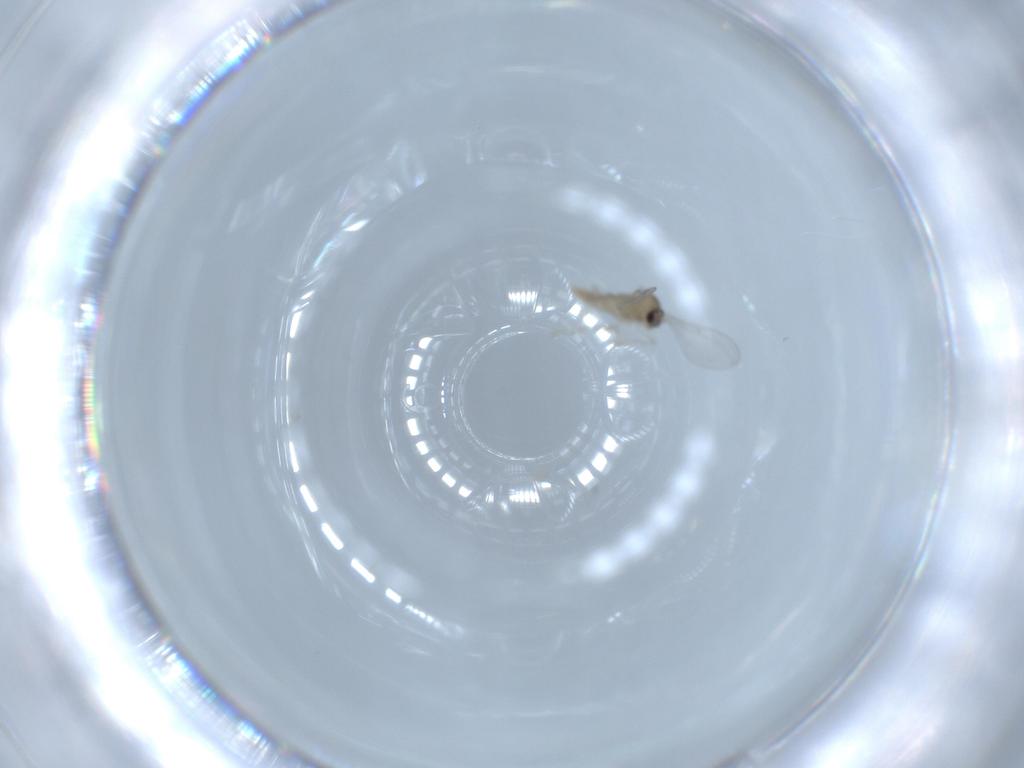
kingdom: Animalia
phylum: Arthropoda
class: Insecta
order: Diptera
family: Cecidomyiidae
